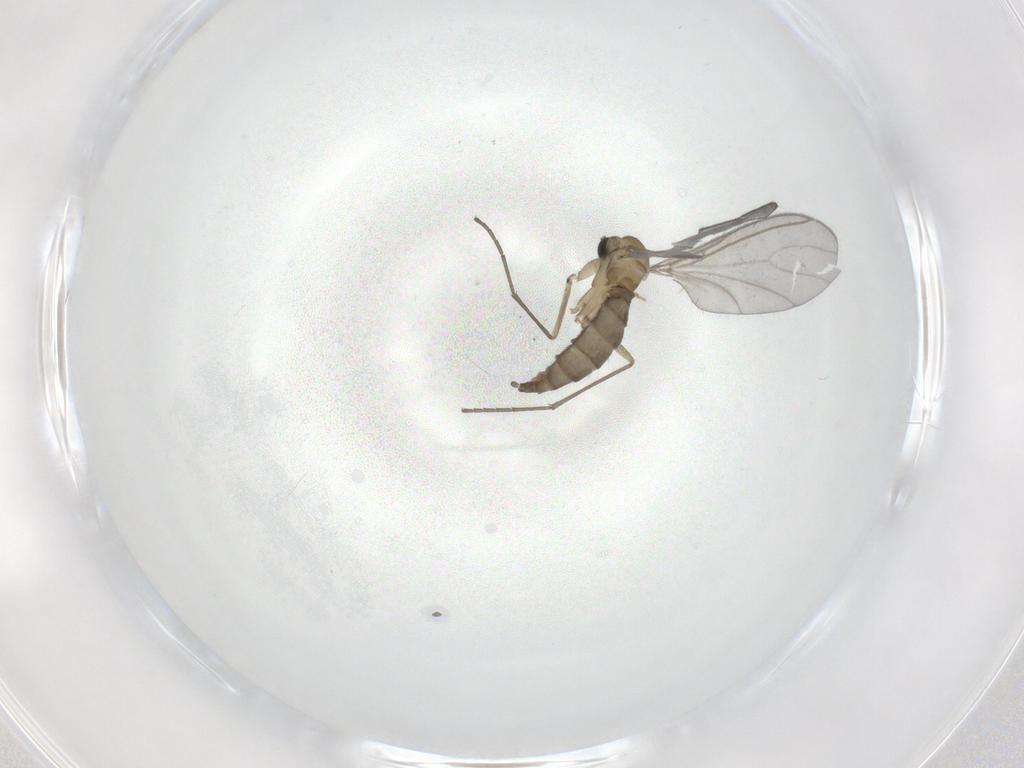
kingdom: Animalia
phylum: Arthropoda
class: Insecta
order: Diptera
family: Sciaridae
